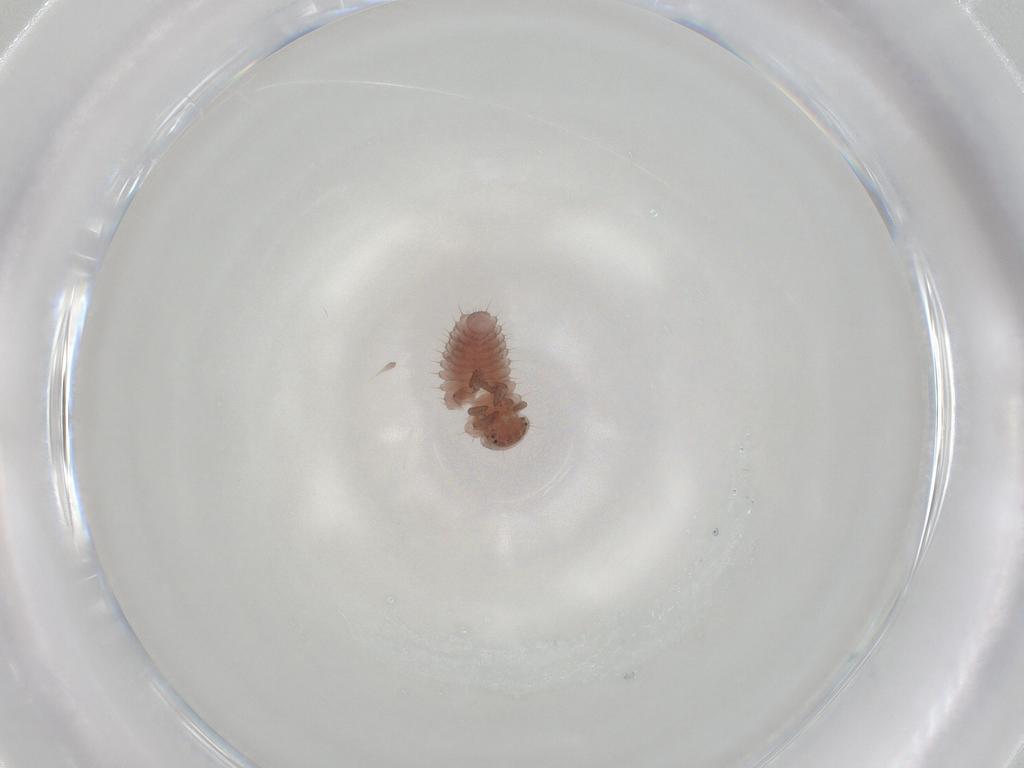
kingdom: Animalia
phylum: Arthropoda
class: Insecta
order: Coleoptera
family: Coccinellidae
